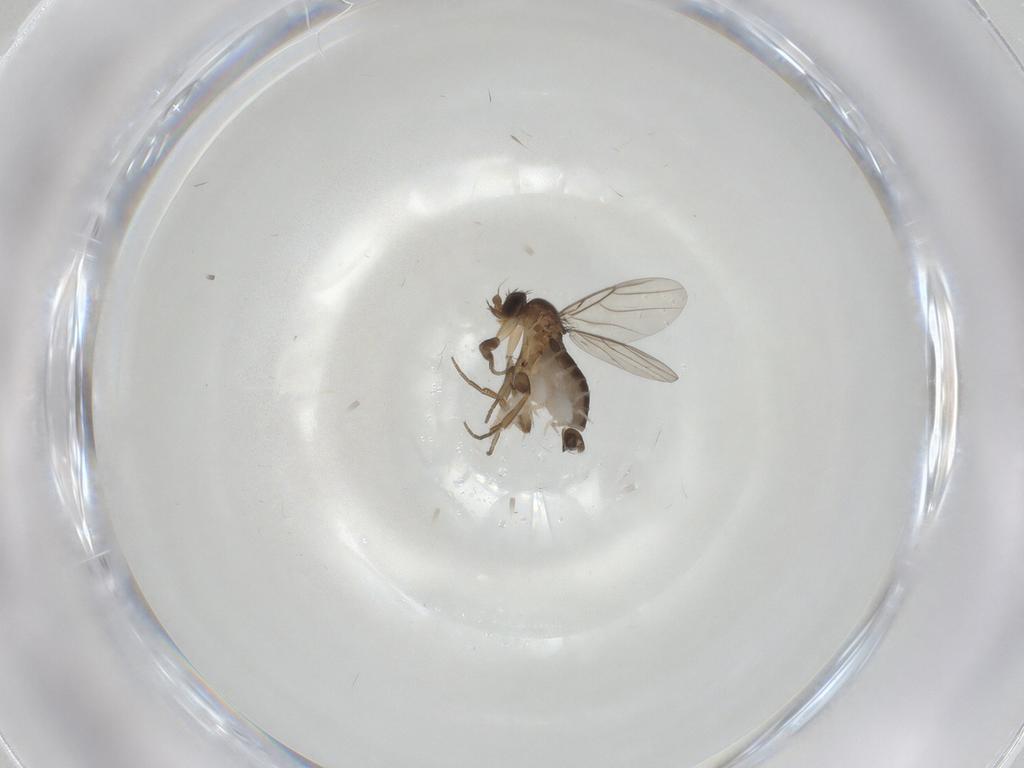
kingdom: Animalia
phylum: Arthropoda
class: Insecta
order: Diptera
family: Phoridae
